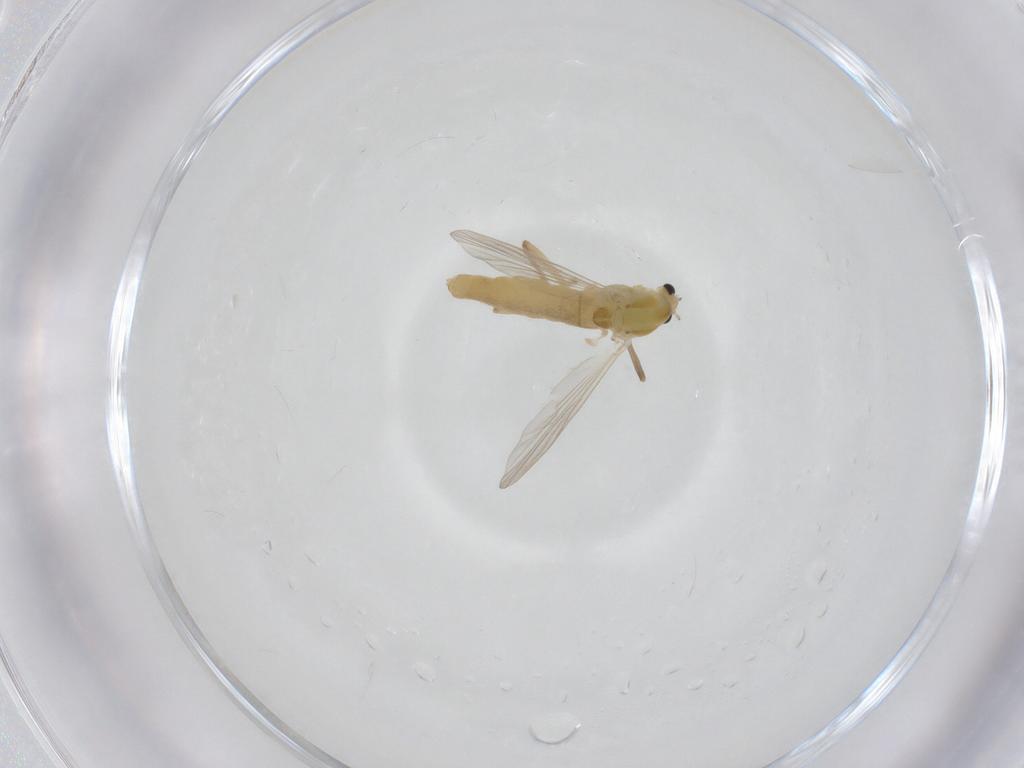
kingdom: Animalia
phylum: Arthropoda
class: Insecta
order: Diptera
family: Chironomidae
